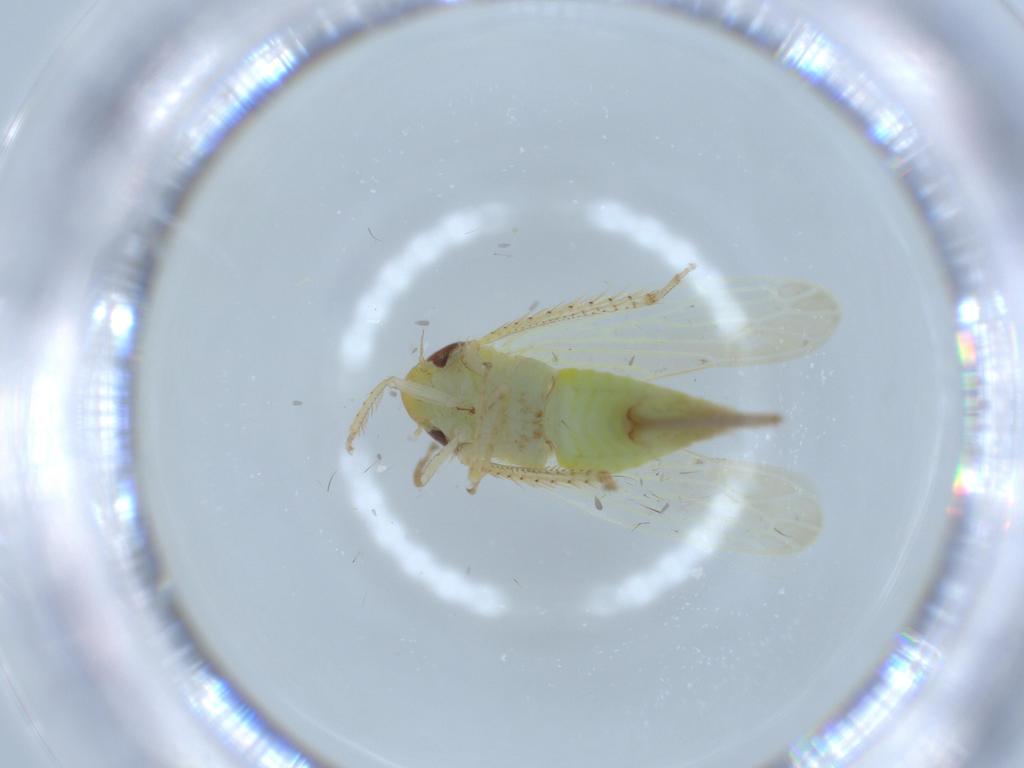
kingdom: Animalia
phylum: Arthropoda
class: Insecta
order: Hemiptera
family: Cicadellidae
